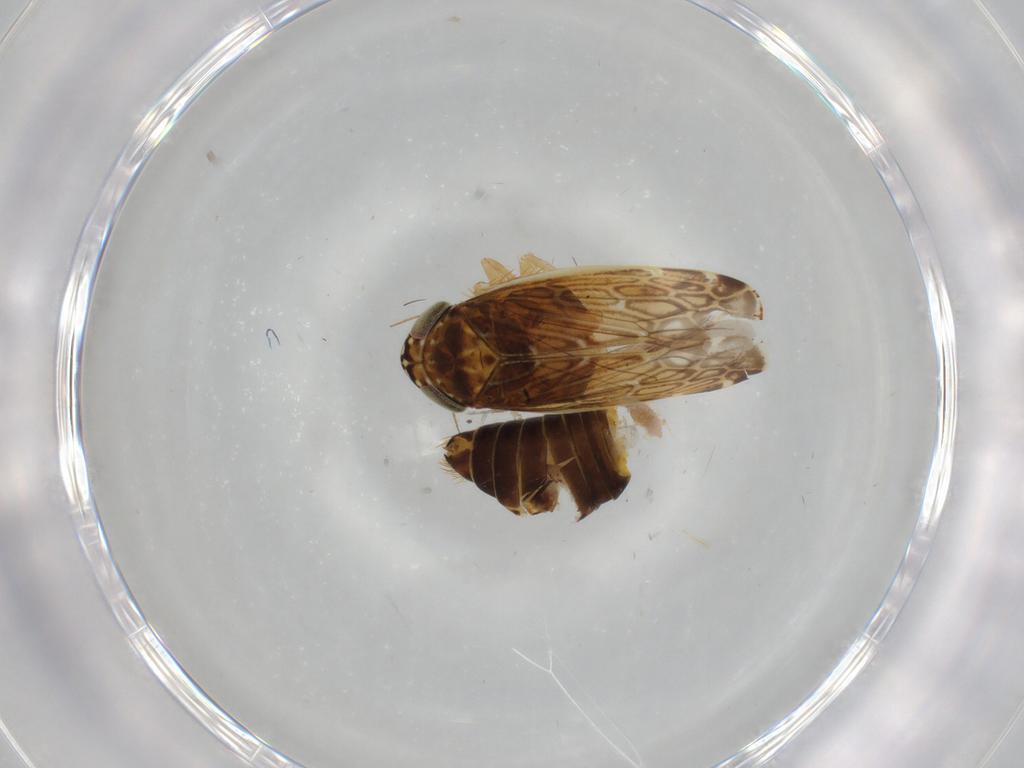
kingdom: Animalia
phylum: Arthropoda
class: Insecta
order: Hemiptera
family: Cicadellidae
